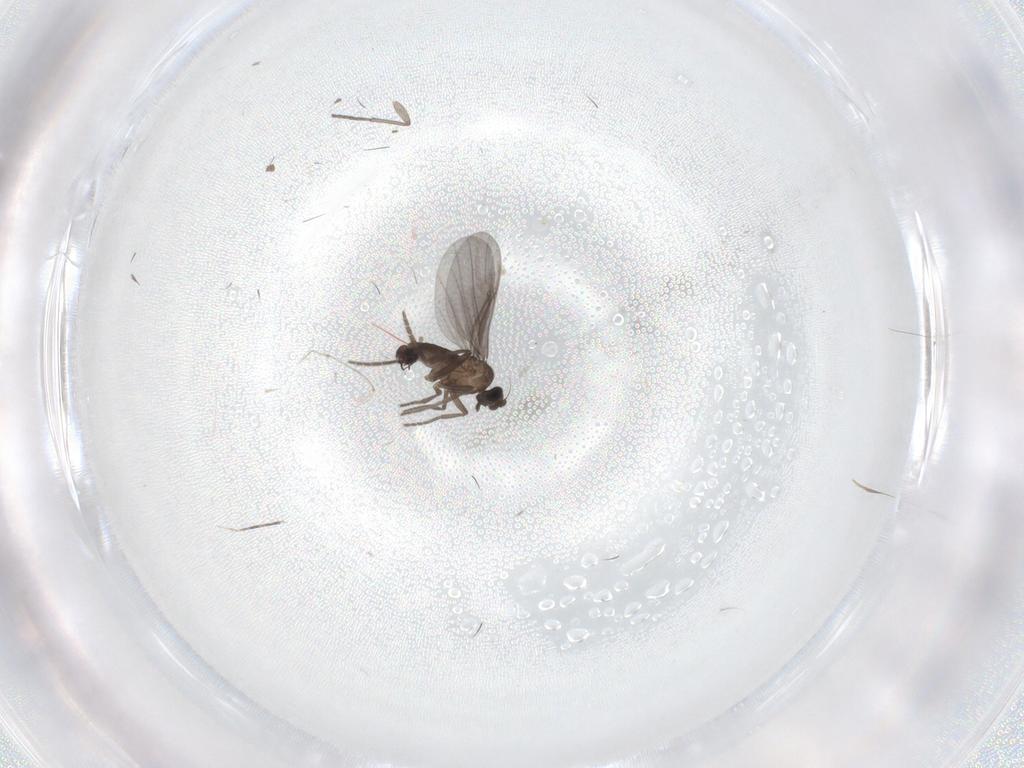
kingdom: Animalia
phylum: Arthropoda
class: Insecta
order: Diptera
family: Phoridae
